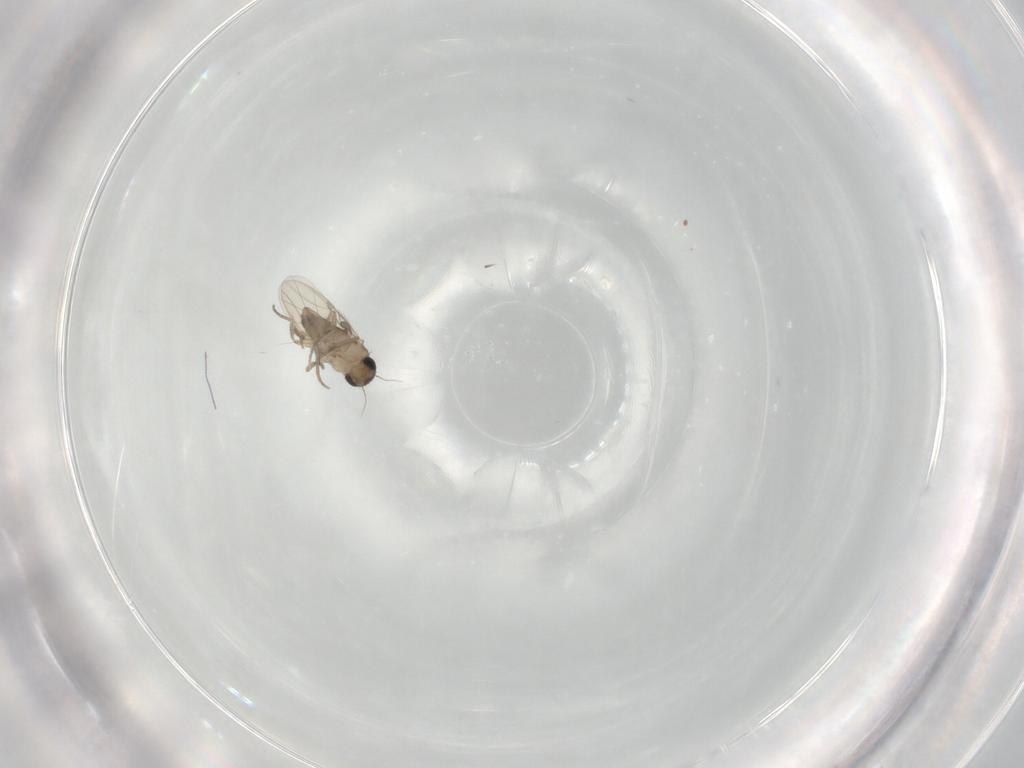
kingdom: Animalia
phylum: Arthropoda
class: Insecta
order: Diptera
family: Phoridae
